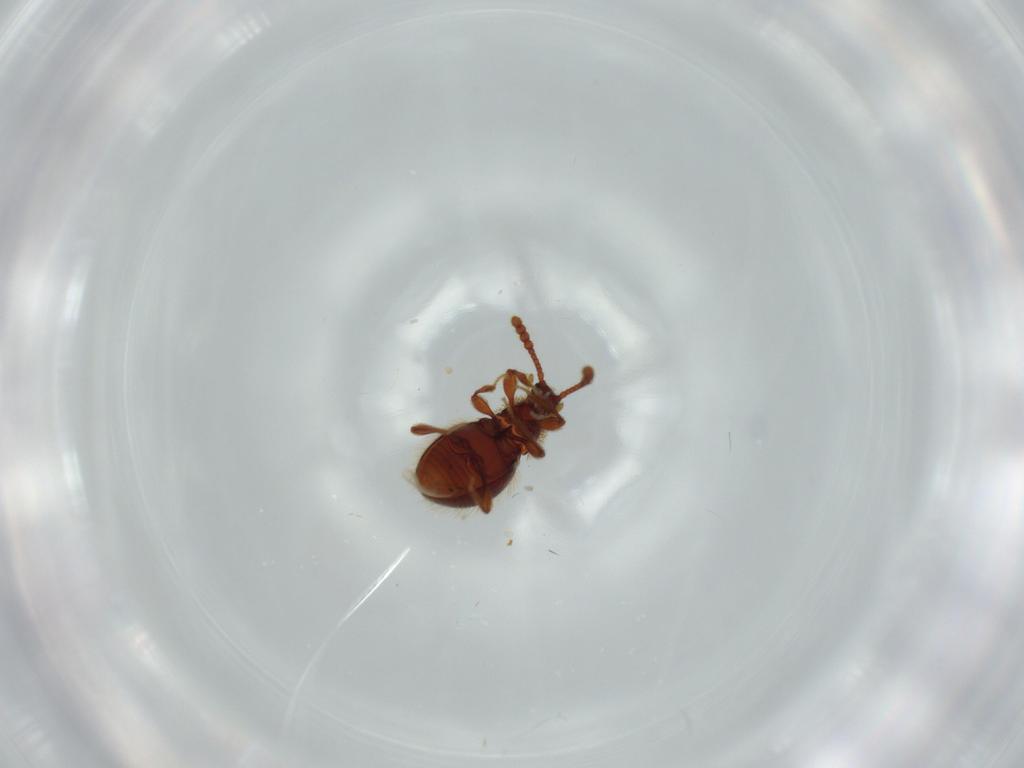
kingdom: Animalia
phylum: Arthropoda
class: Insecta
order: Coleoptera
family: Staphylinidae
